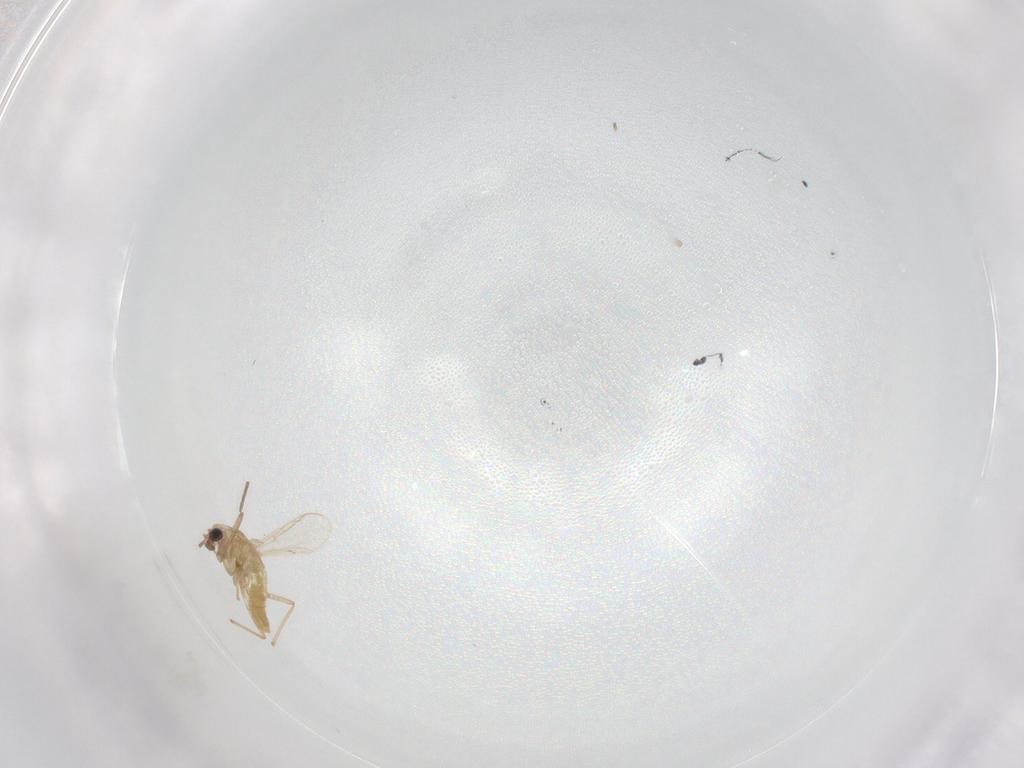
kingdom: Animalia
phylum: Arthropoda
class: Insecta
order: Diptera
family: Chironomidae
